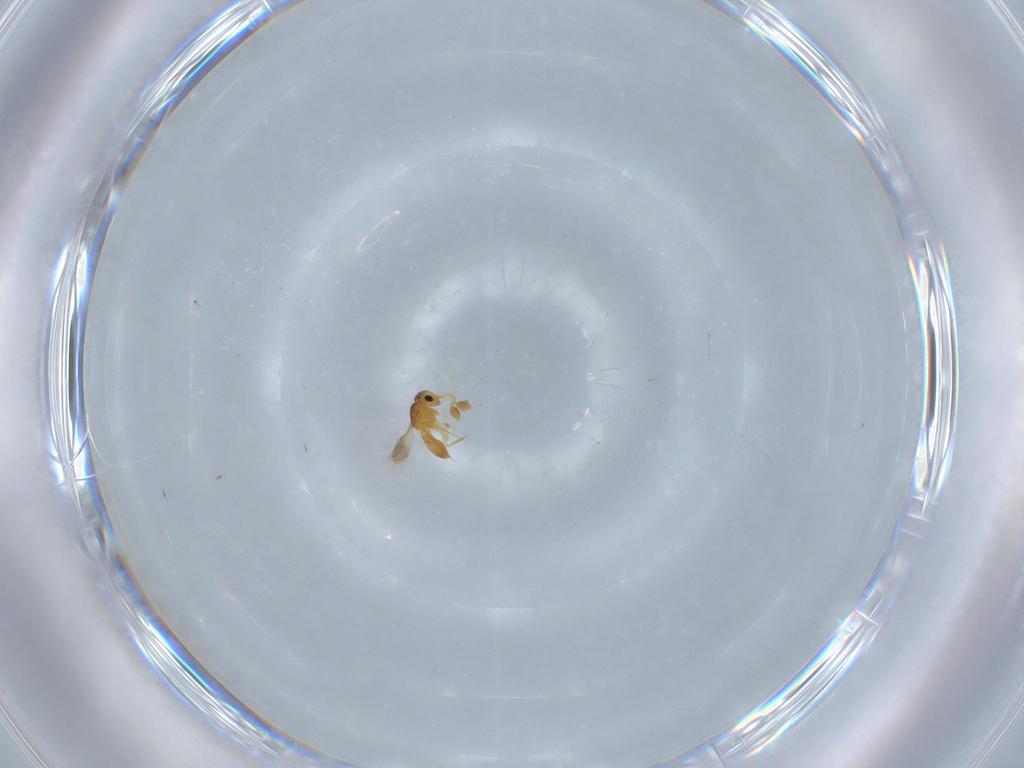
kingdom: Animalia
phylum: Arthropoda
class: Insecta
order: Hymenoptera
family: Scelionidae
